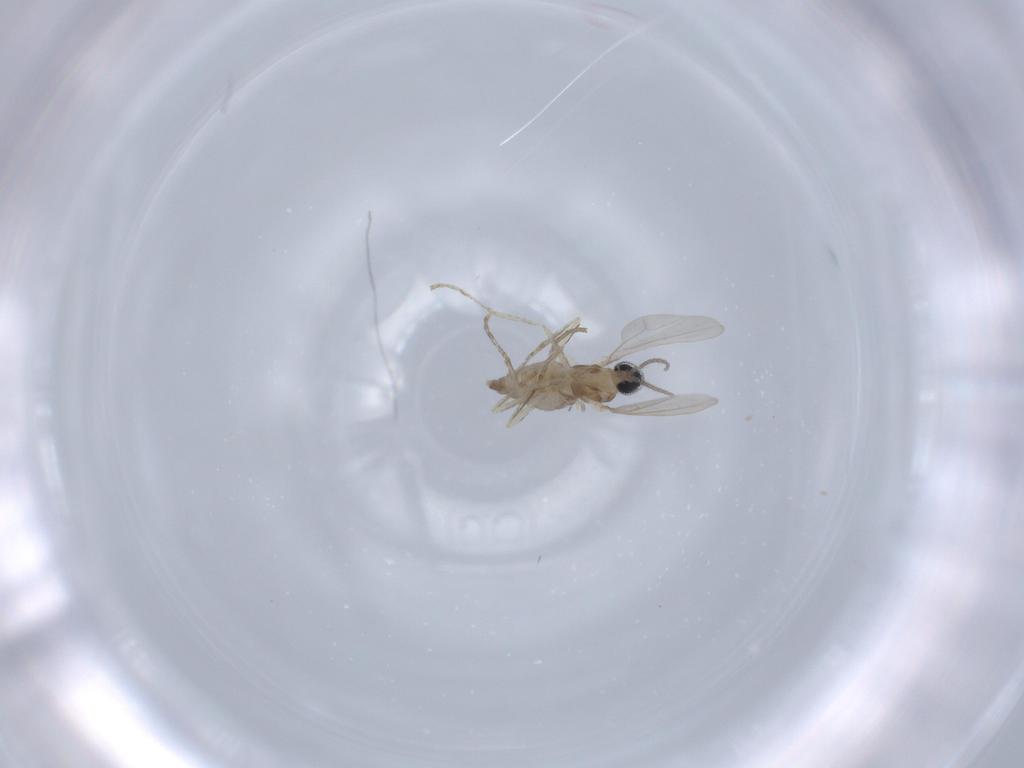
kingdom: Animalia
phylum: Arthropoda
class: Insecta
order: Diptera
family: Cecidomyiidae
